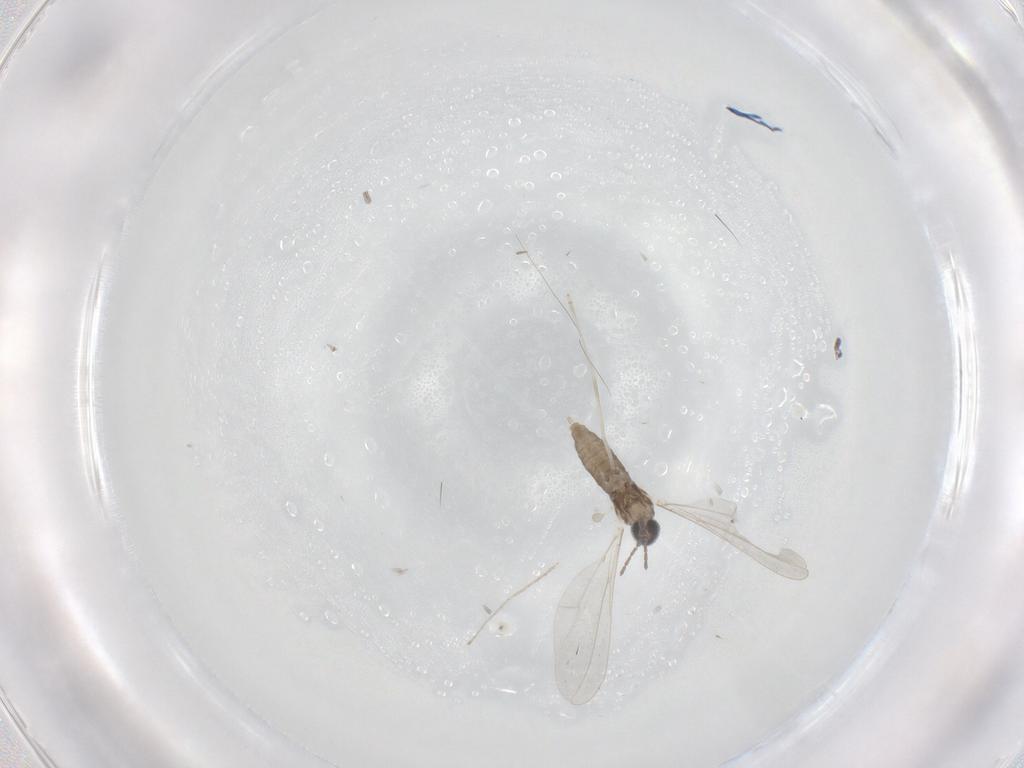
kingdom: Animalia
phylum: Arthropoda
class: Insecta
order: Diptera
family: Cecidomyiidae
